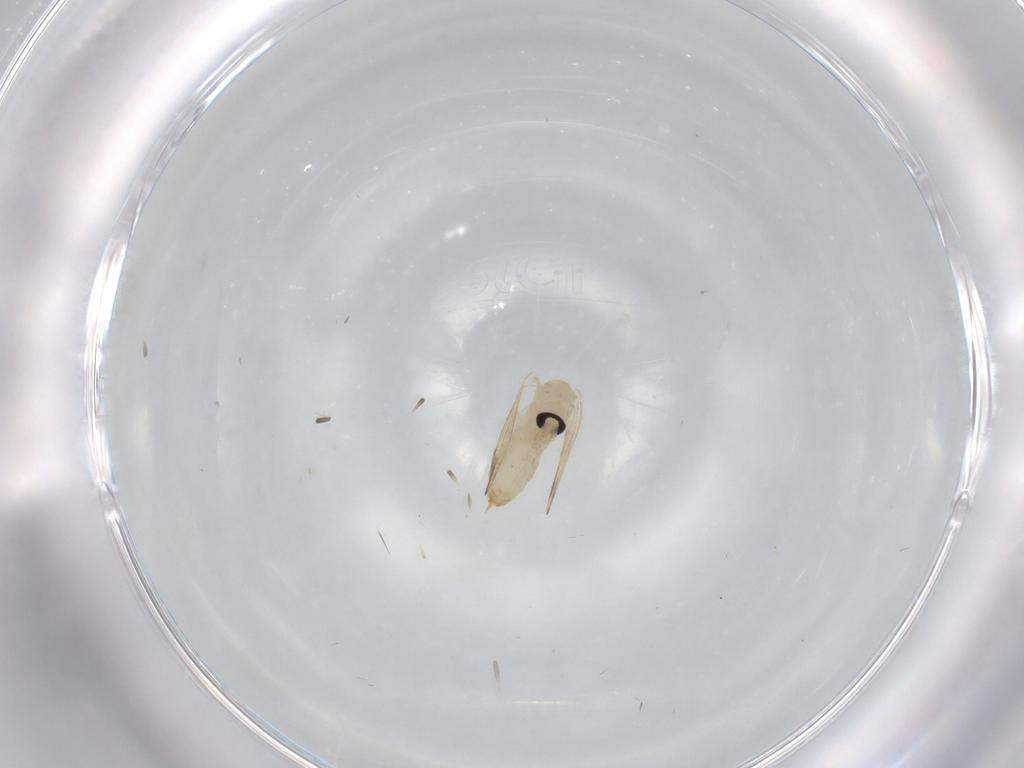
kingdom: Animalia
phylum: Arthropoda
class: Insecta
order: Diptera
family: Psychodidae
